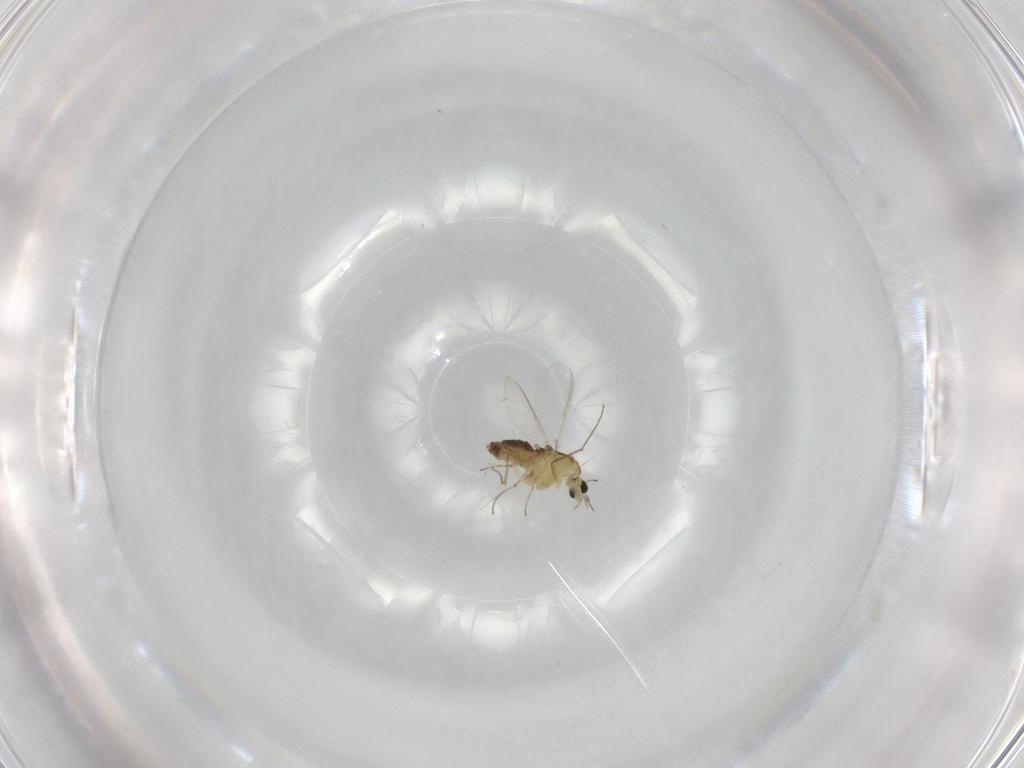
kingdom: Animalia
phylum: Arthropoda
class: Insecta
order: Diptera
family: Chironomidae
